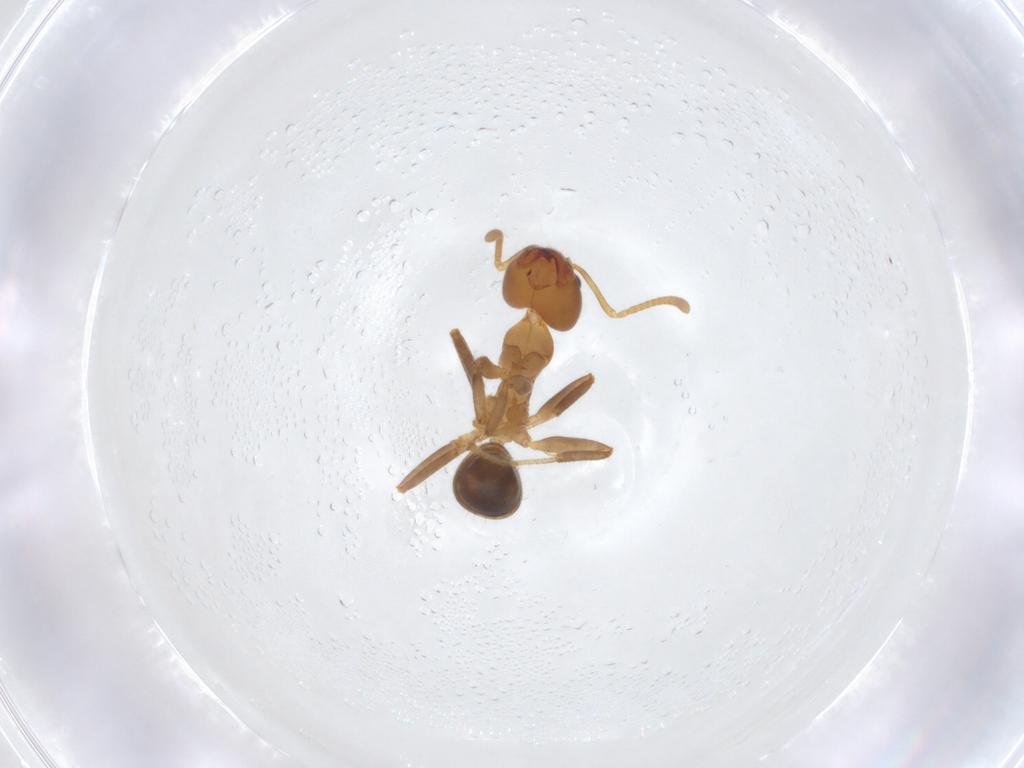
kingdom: Animalia
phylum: Arthropoda
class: Insecta
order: Hymenoptera
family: Formicidae
